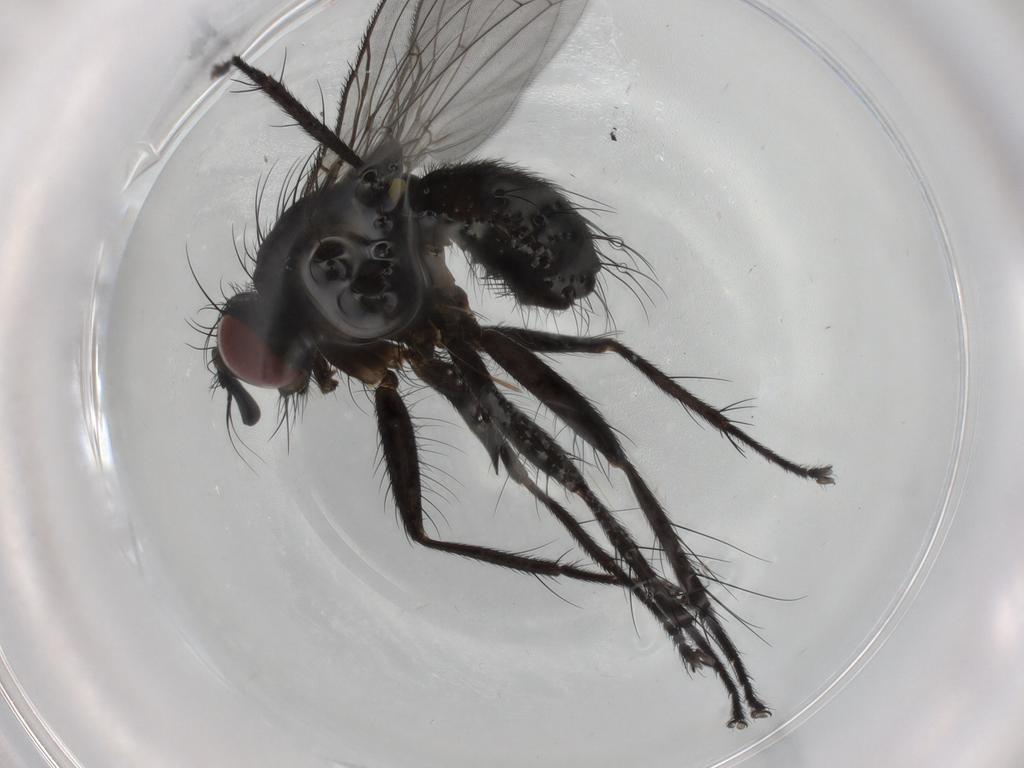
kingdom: Animalia
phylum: Arthropoda
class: Insecta
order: Diptera
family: Muscidae
